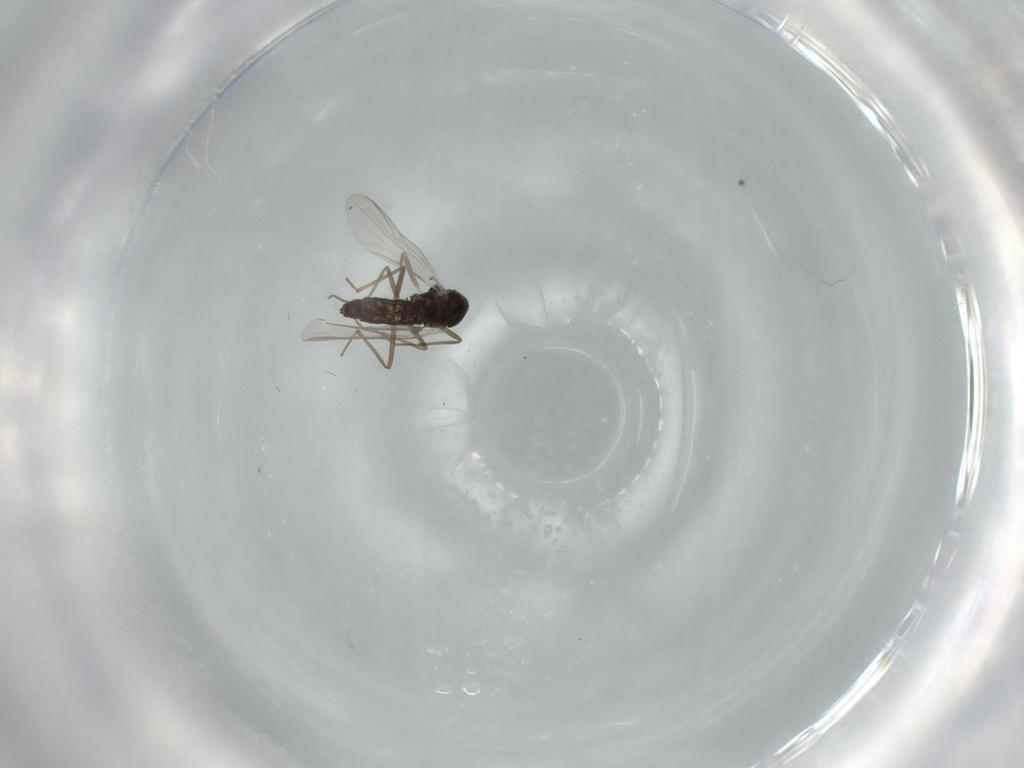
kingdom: Animalia
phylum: Arthropoda
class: Insecta
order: Diptera
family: Chironomidae
